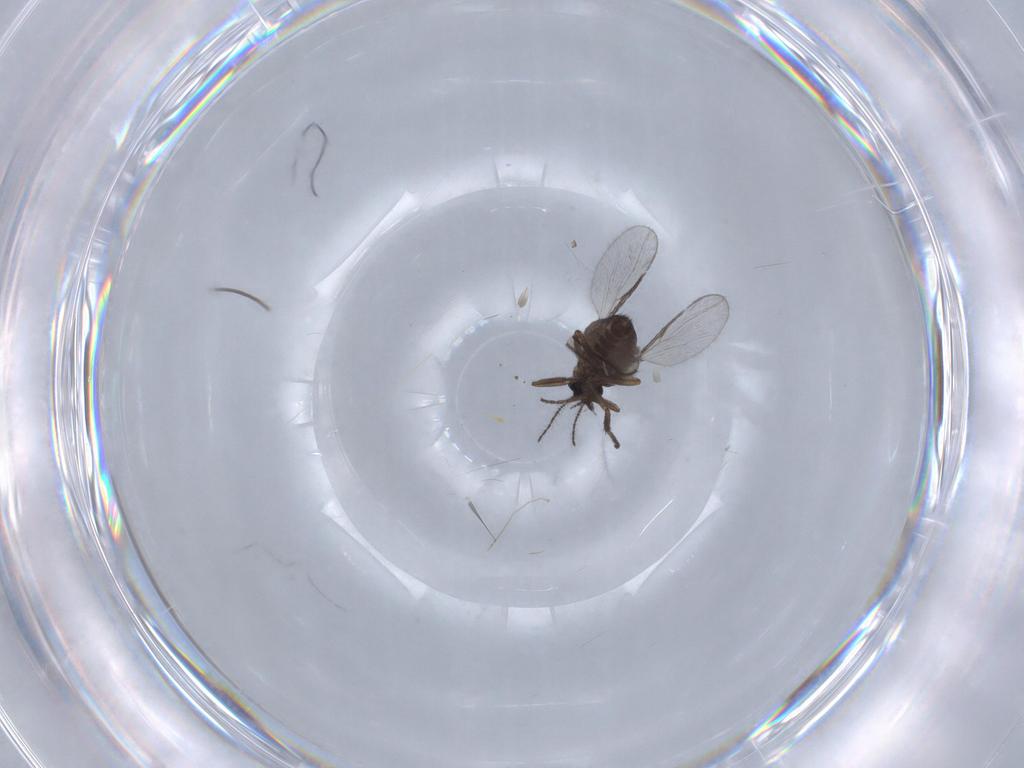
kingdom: Animalia
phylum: Arthropoda
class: Insecta
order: Diptera
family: Ceratopogonidae
